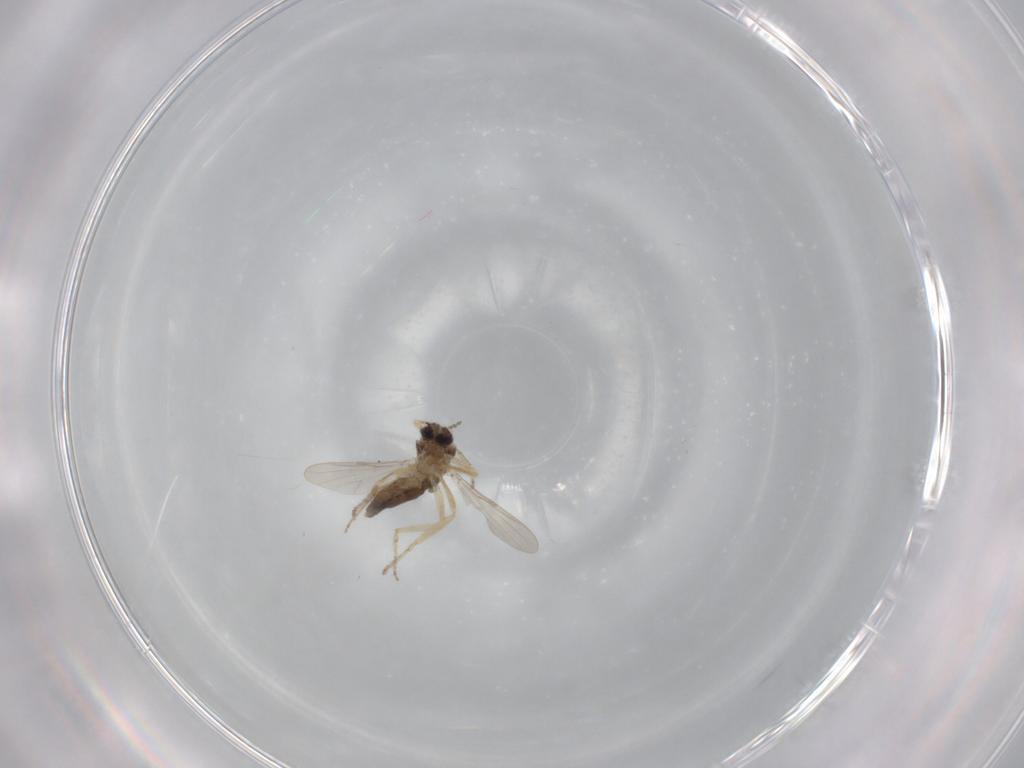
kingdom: Animalia
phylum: Arthropoda
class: Insecta
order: Diptera
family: Ceratopogonidae
